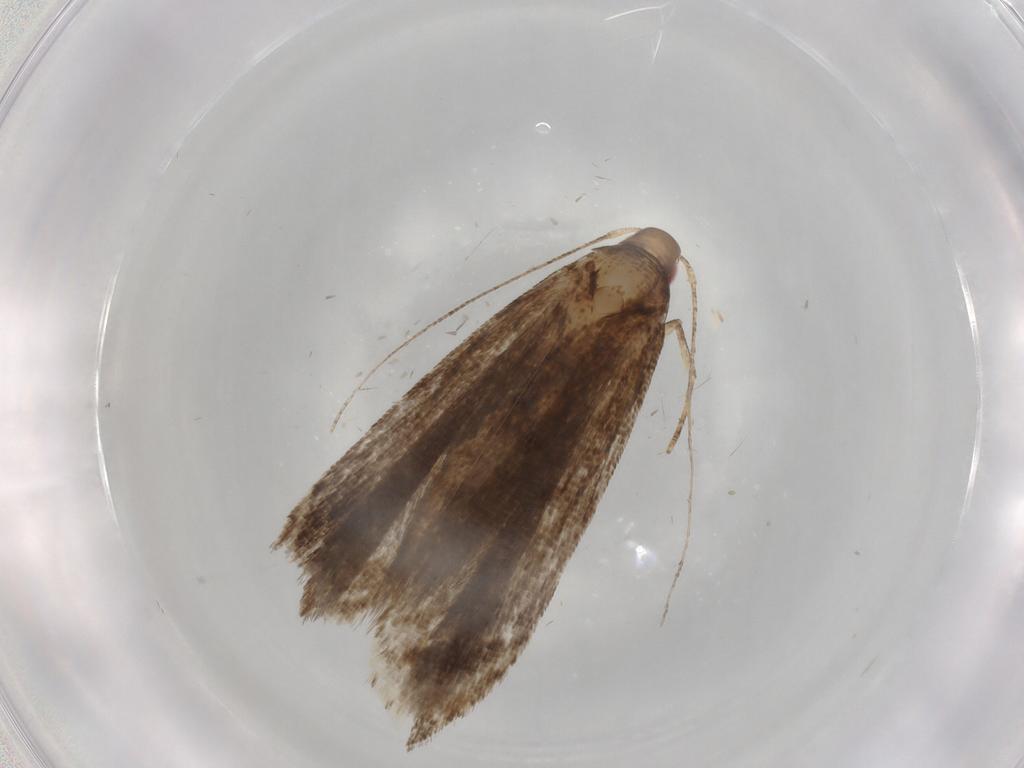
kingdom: Animalia
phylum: Arthropoda
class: Insecta
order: Lepidoptera
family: Gelechiidae
